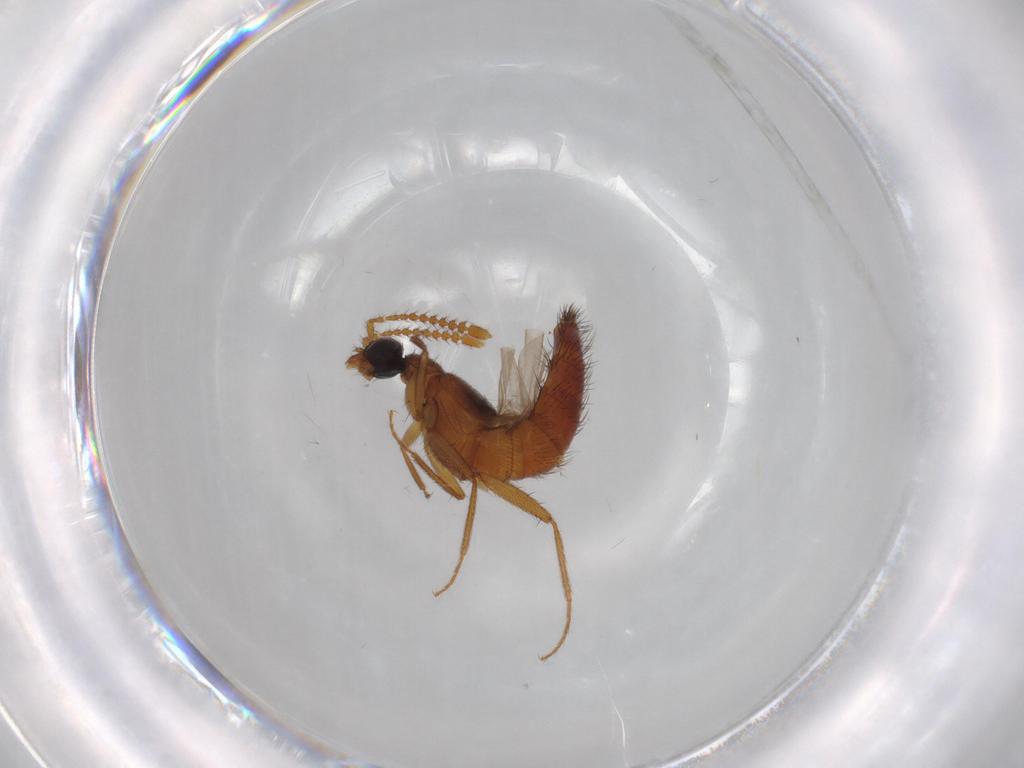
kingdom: Animalia
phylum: Arthropoda
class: Insecta
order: Coleoptera
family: Staphylinidae
